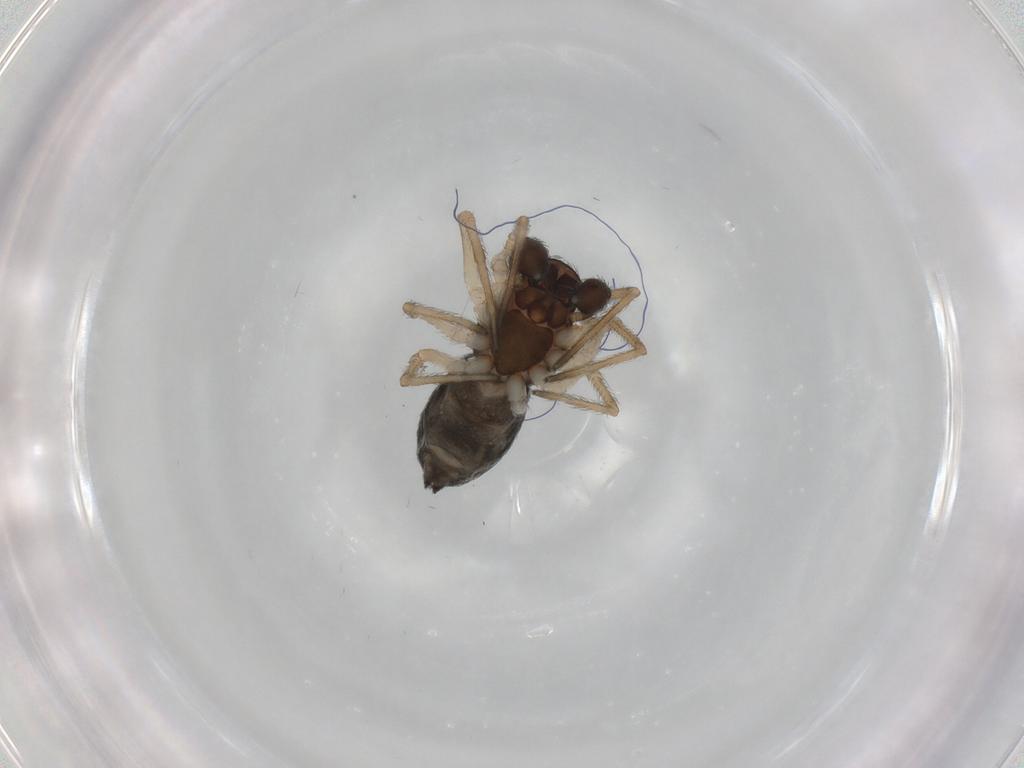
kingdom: Animalia
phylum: Arthropoda
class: Arachnida
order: Araneae
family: Dictynidae
